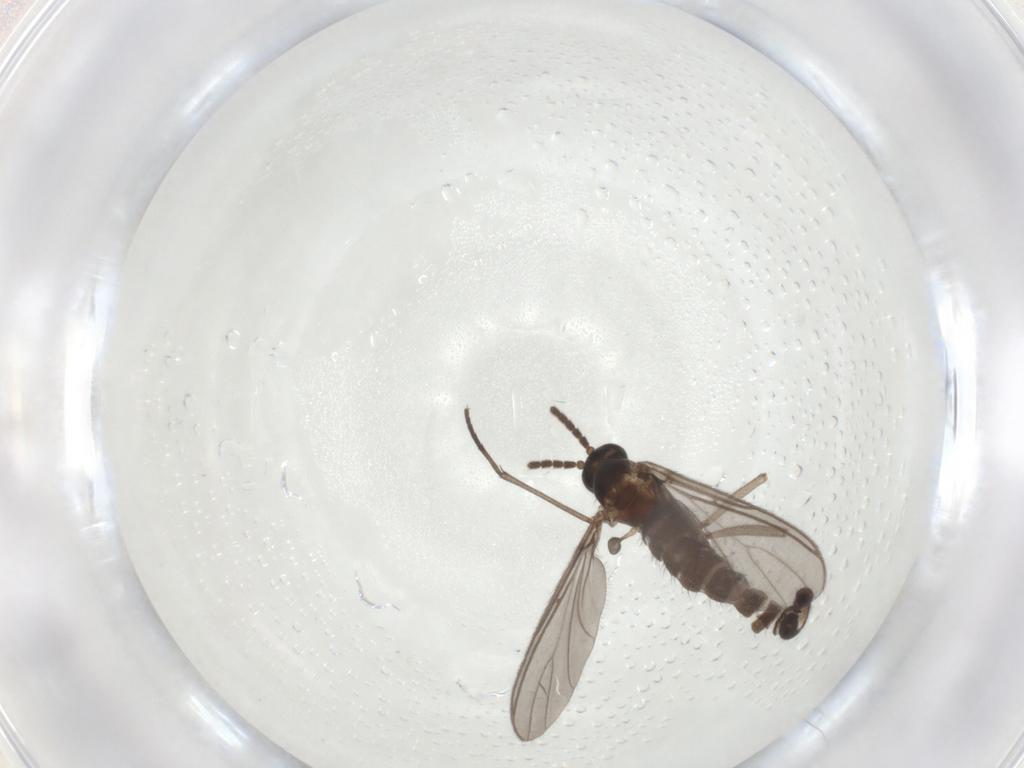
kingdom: Animalia
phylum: Arthropoda
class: Insecta
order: Diptera
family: Sciaridae
